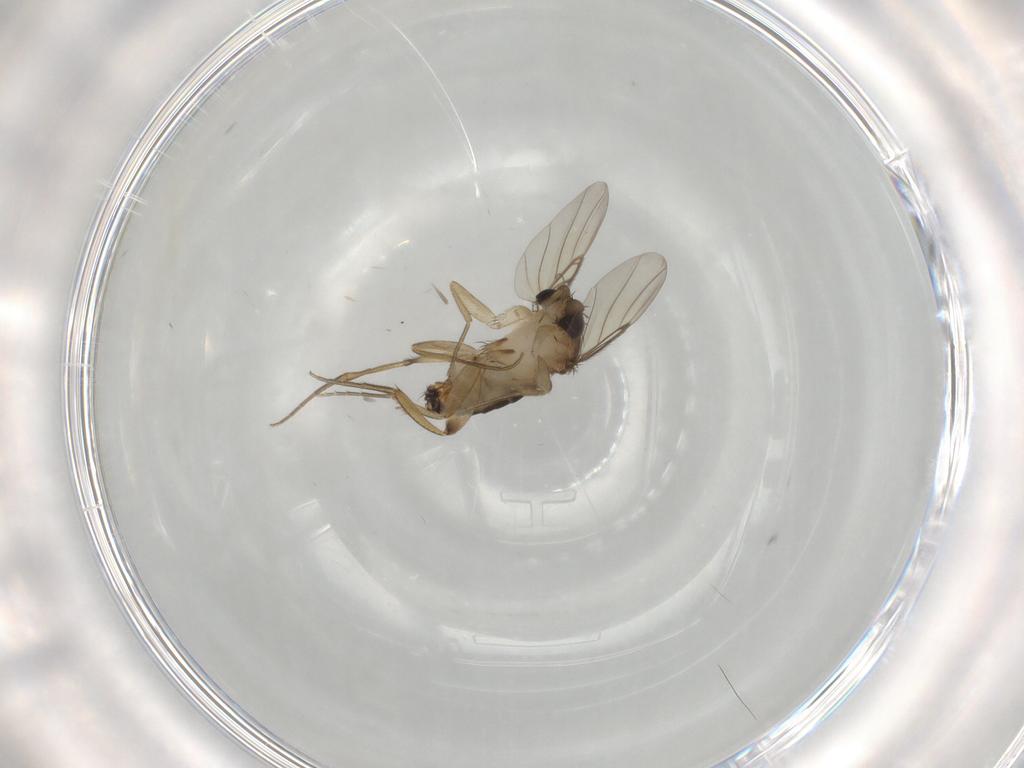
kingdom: Animalia
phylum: Arthropoda
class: Insecta
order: Diptera
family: Phoridae
